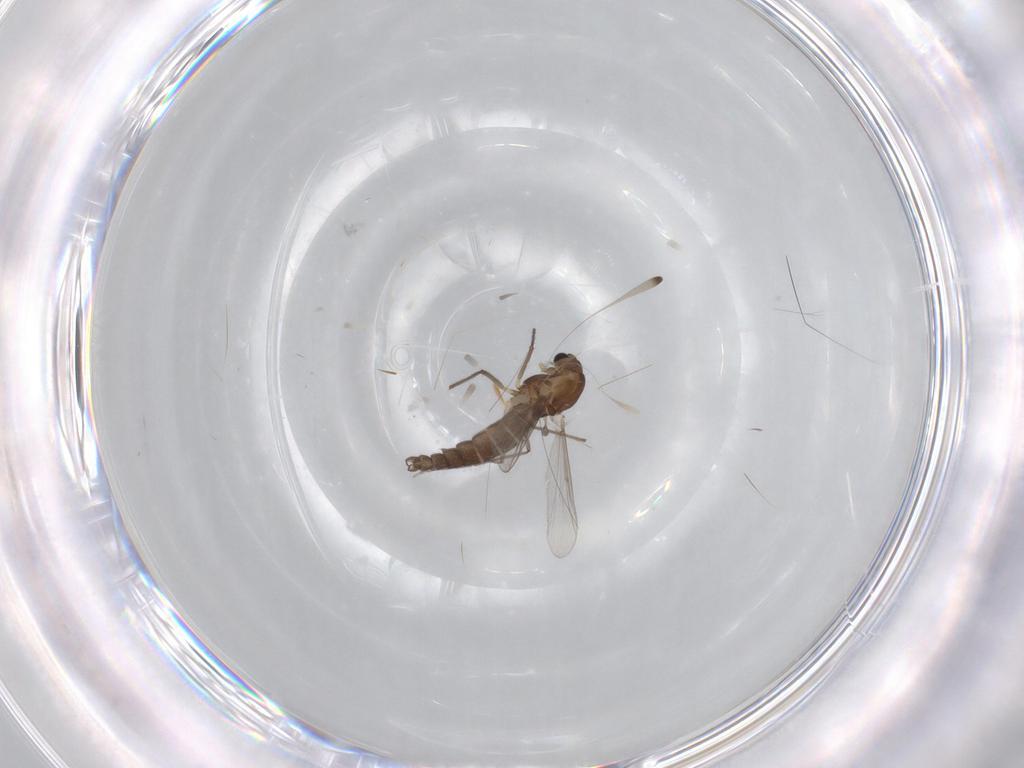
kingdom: Animalia
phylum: Arthropoda
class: Insecta
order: Diptera
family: Chironomidae
